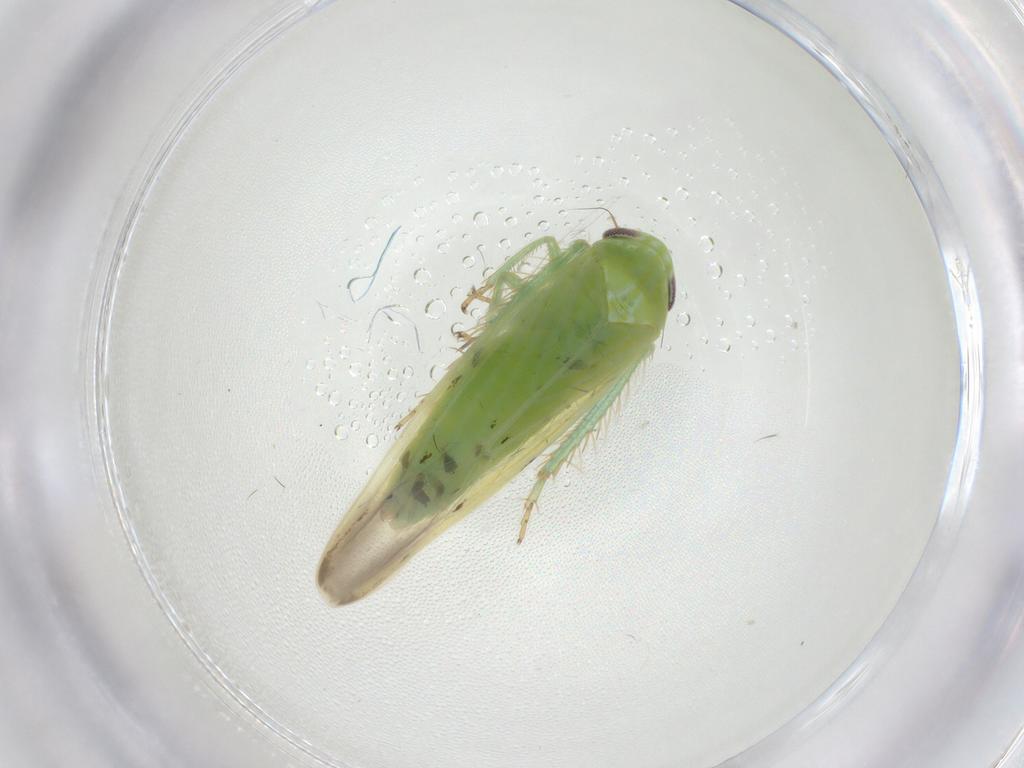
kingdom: Animalia
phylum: Arthropoda
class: Insecta
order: Hemiptera
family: Cicadellidae
